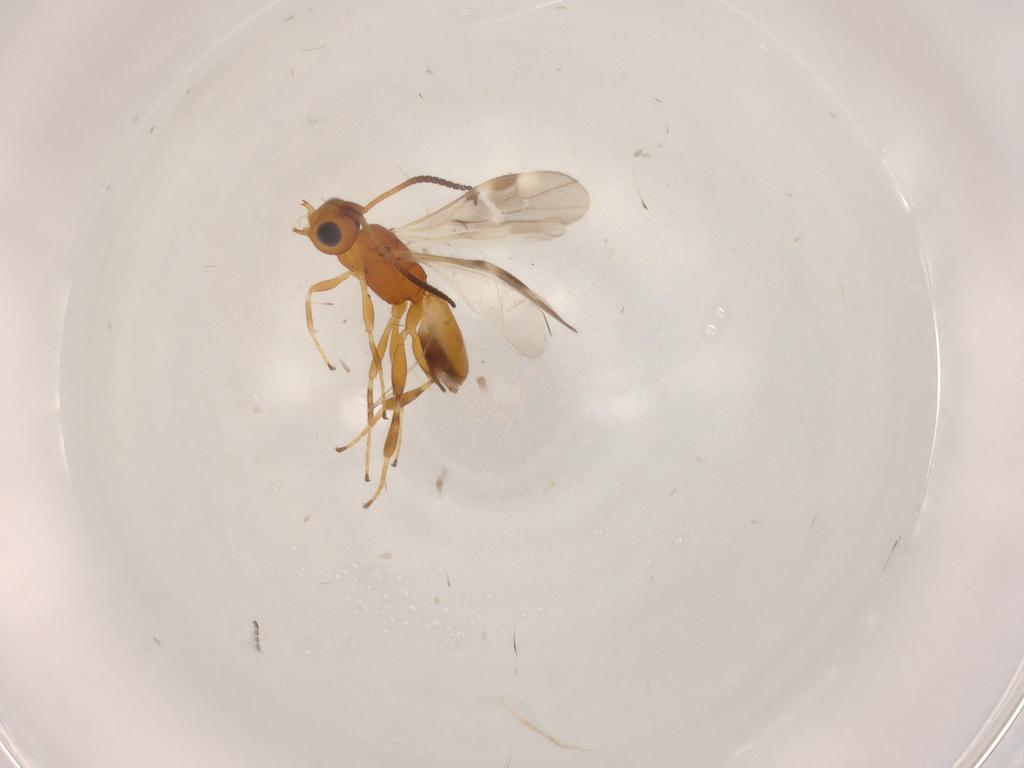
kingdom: Animalia
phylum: Arthropoda
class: Insecta
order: Hymenoptera
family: Braconidae
